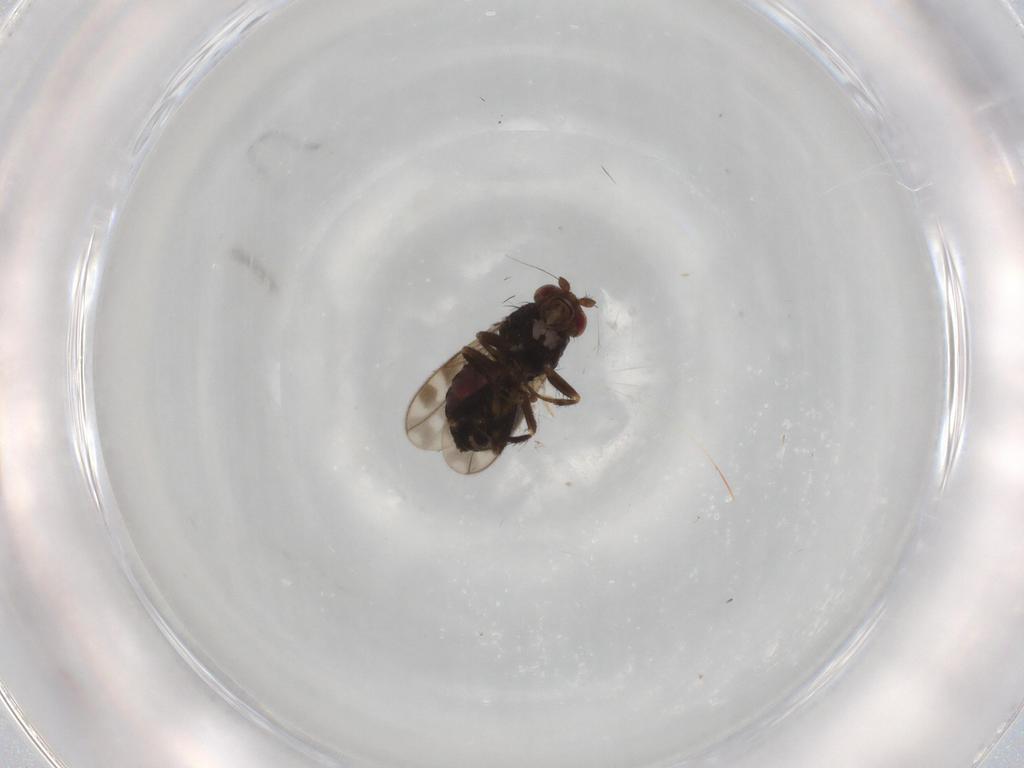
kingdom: Animalia
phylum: Arthropoda
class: Insecta
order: Diptera
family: Sphaeroceridae
